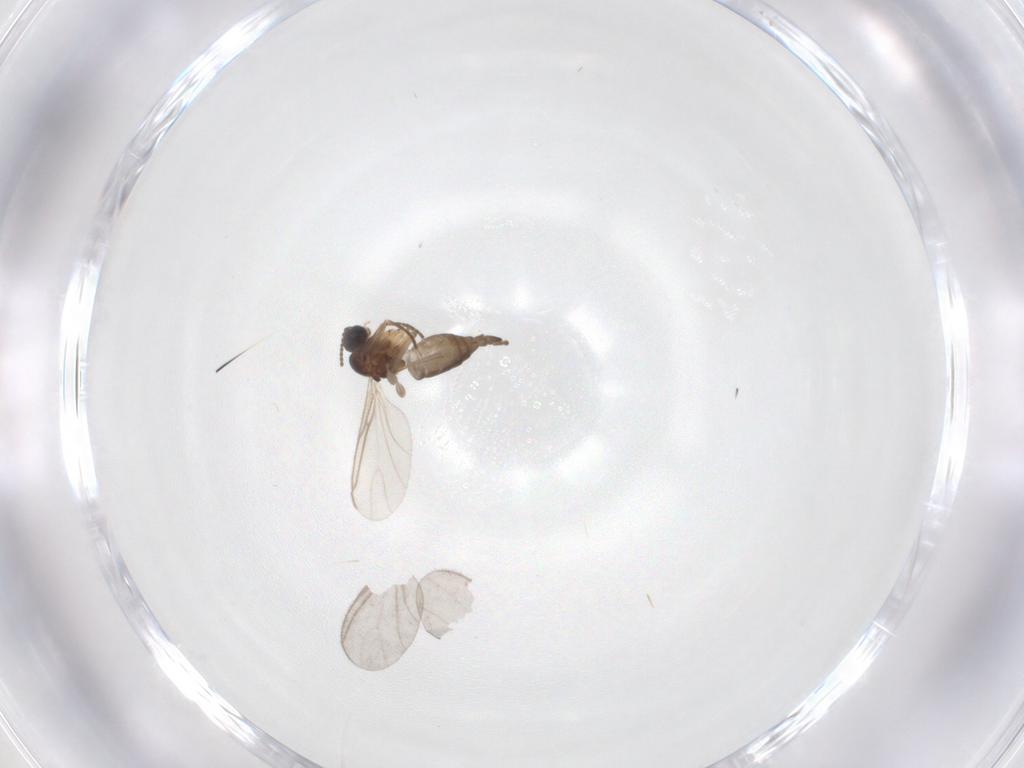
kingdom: Animalia
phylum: Arthropoda
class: Insecta
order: Diptera
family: Sciaridae
